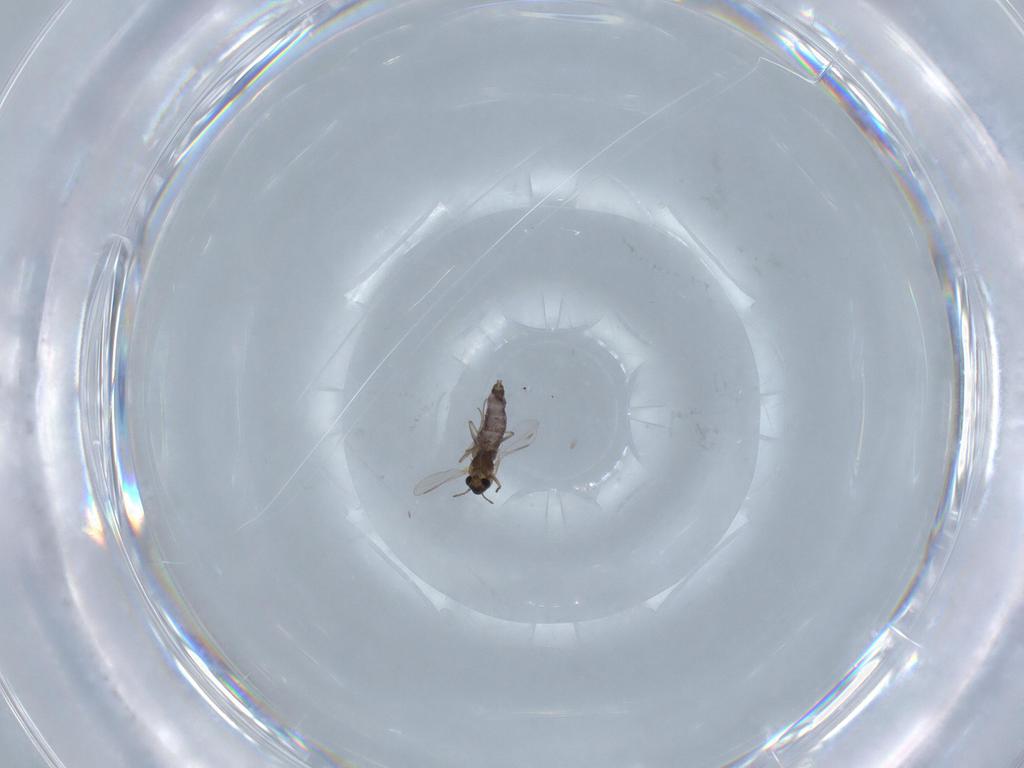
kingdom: Animalia
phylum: Arthropoda
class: Insecta
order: Diptera
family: Chironomidae
